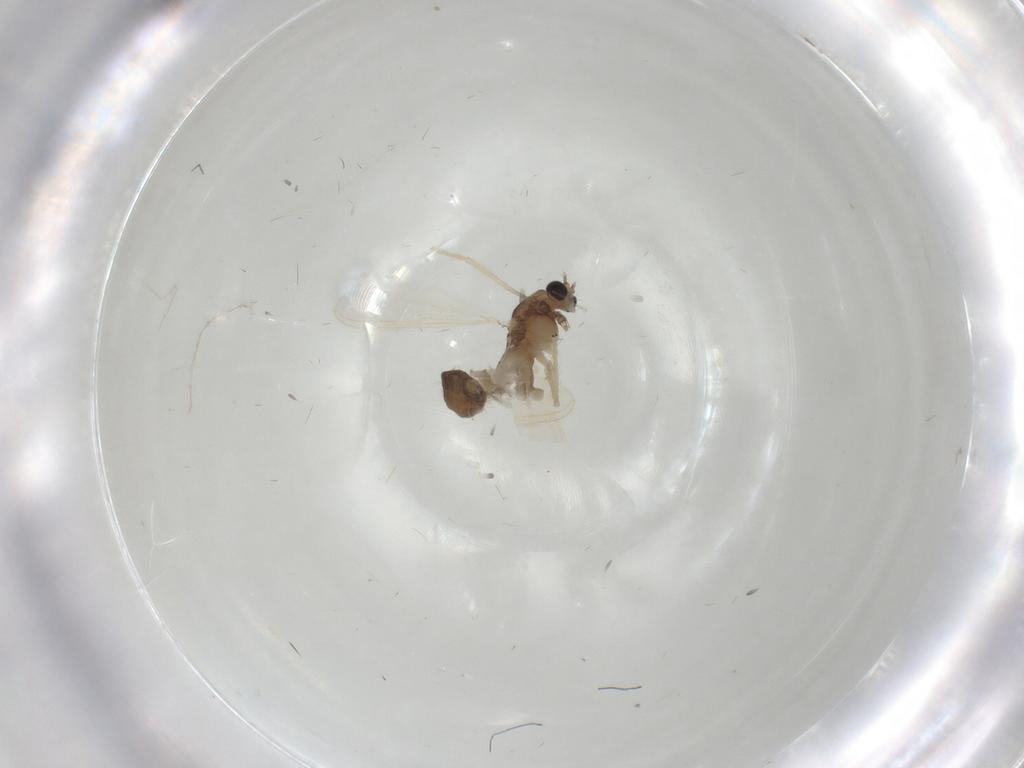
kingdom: Animalia
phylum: Arthropoda
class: Insecta
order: Diptera
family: Chironomidae
